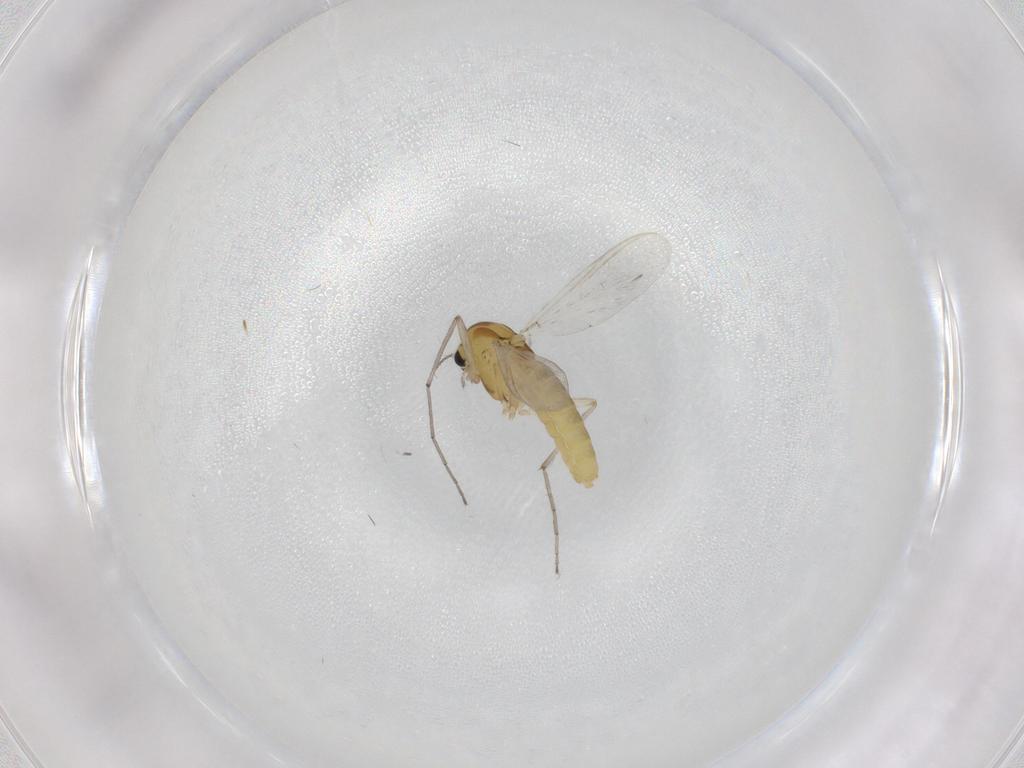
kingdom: Animalia
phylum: Arthropoda
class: Insecta
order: Diptera
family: Chironomidae
